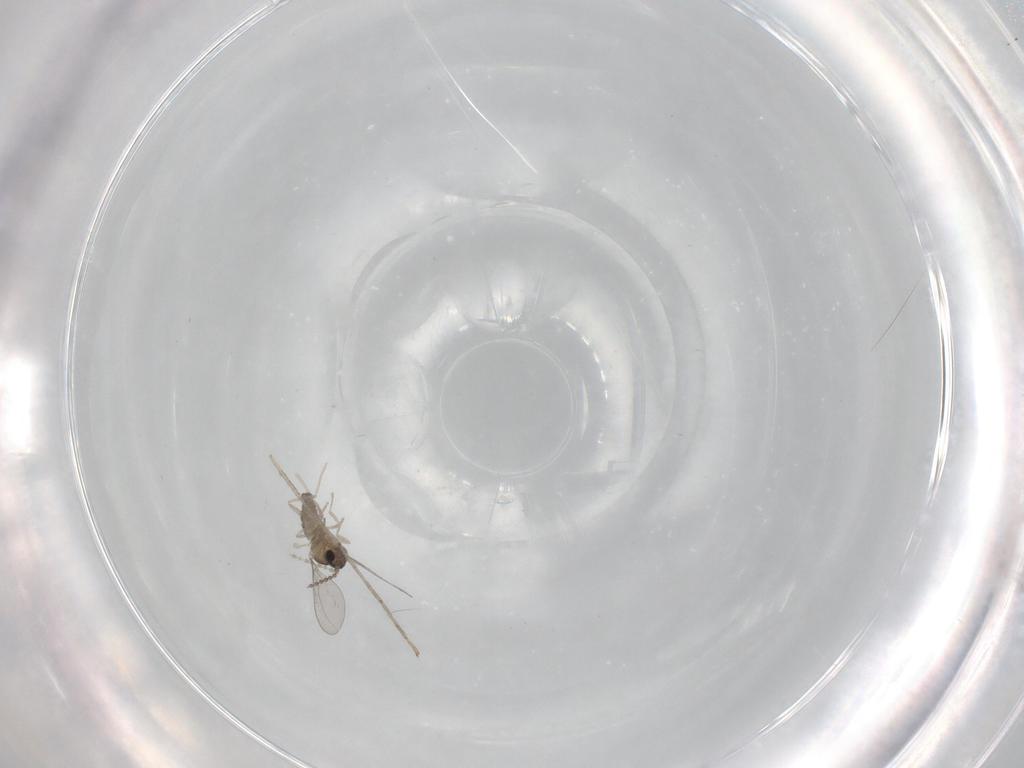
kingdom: Animalia
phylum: Arthropoda
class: Insecta
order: Diptera
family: Cecidomyiidae
